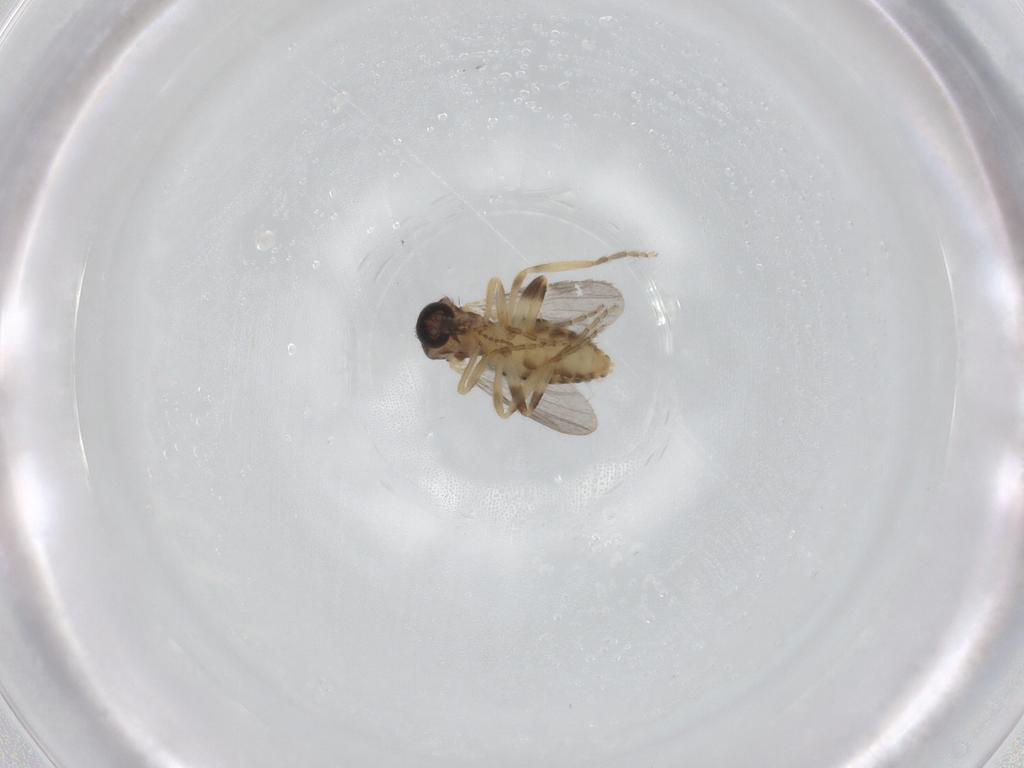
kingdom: Animalia
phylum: Arthropoda
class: Insecta
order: Diptera
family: Ceratopogonidae
